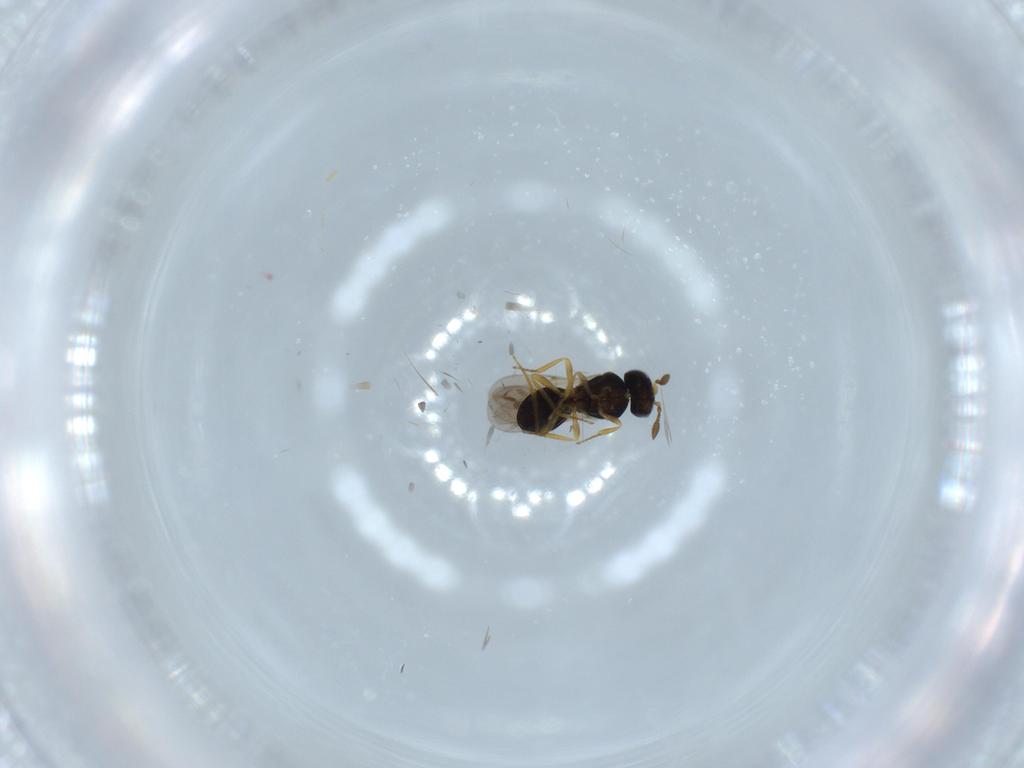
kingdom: Animalia
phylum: Arthropoda
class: Insecta
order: Hymenoptera
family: Scelionidae
